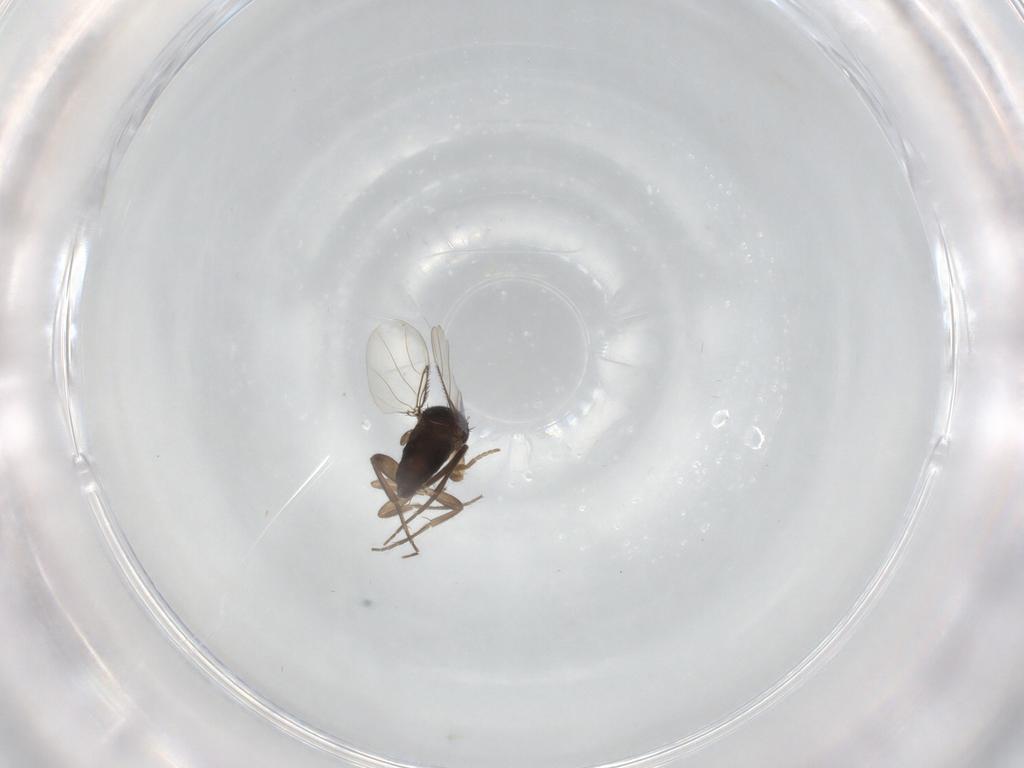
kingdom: Animalia
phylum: Arthropoda
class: Insecta
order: Diptera
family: Phoridae
